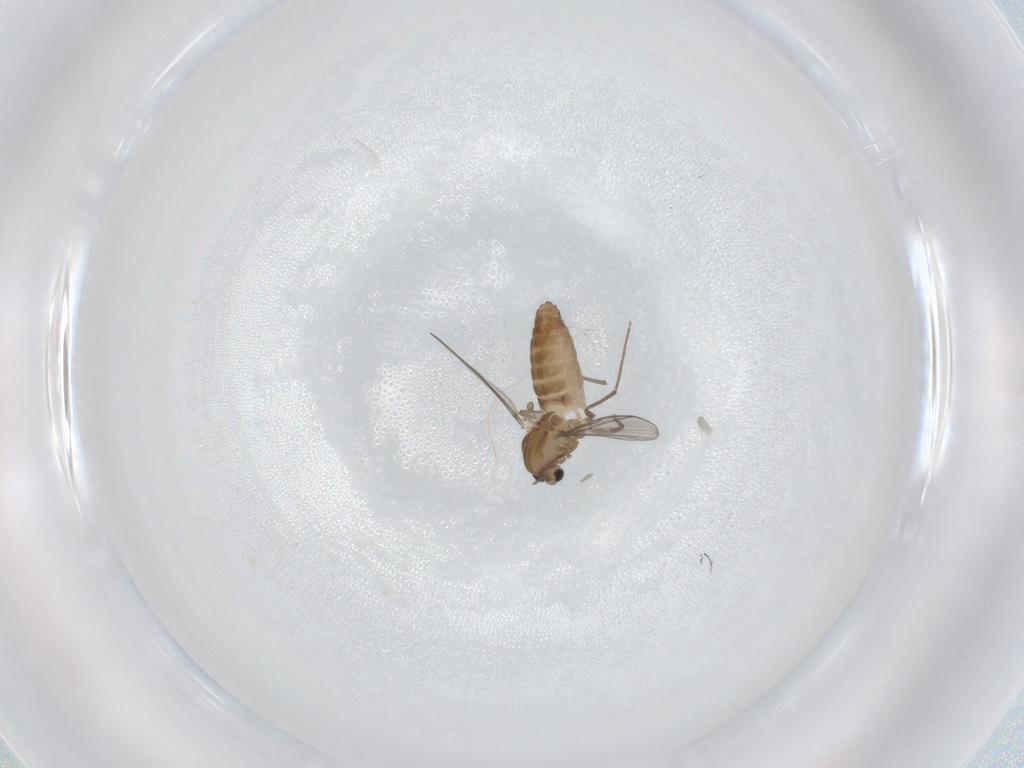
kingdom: Animalia
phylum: Arthropoda
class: Insecta
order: Diptera
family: Chironomidae
